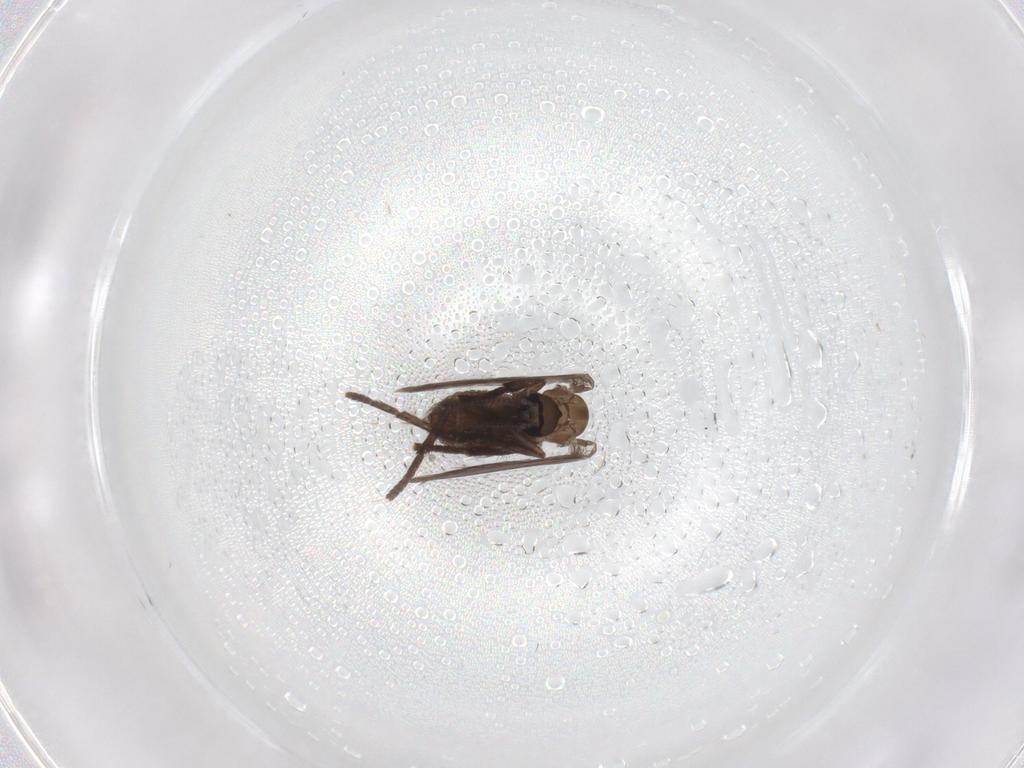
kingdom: Animalia
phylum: Arthropoda
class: Insecta
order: Diptera
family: Psychodidae
